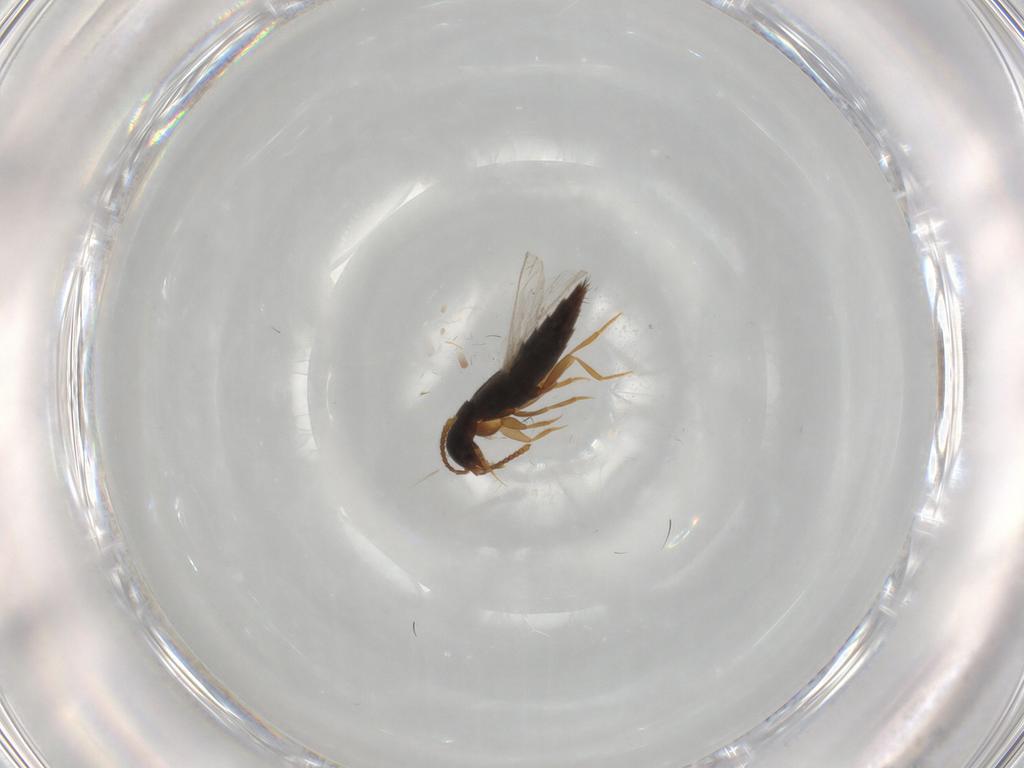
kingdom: Animalia
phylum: Arthropoda
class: Insecta
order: Coleoptera
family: Staphylinidae
